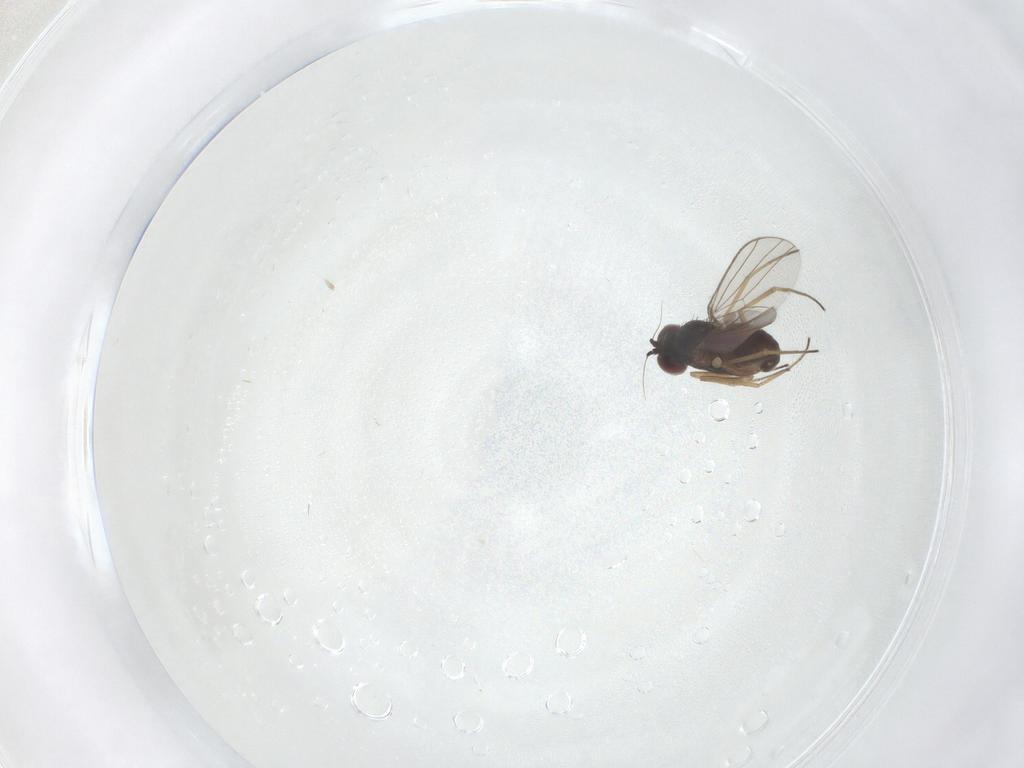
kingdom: Animalia
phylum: Arthropoda
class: Insecta
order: Diptera
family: Dolichopodidae
